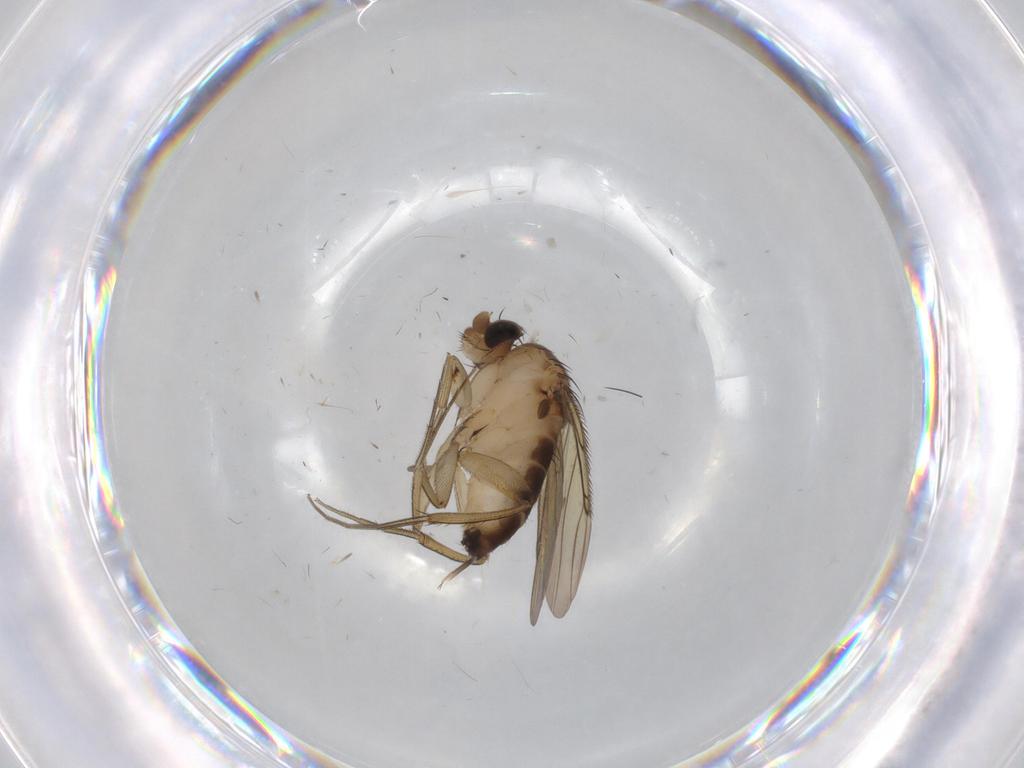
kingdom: Animalia
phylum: Arthropoda
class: Insecta
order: Diptera
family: Phoridae
